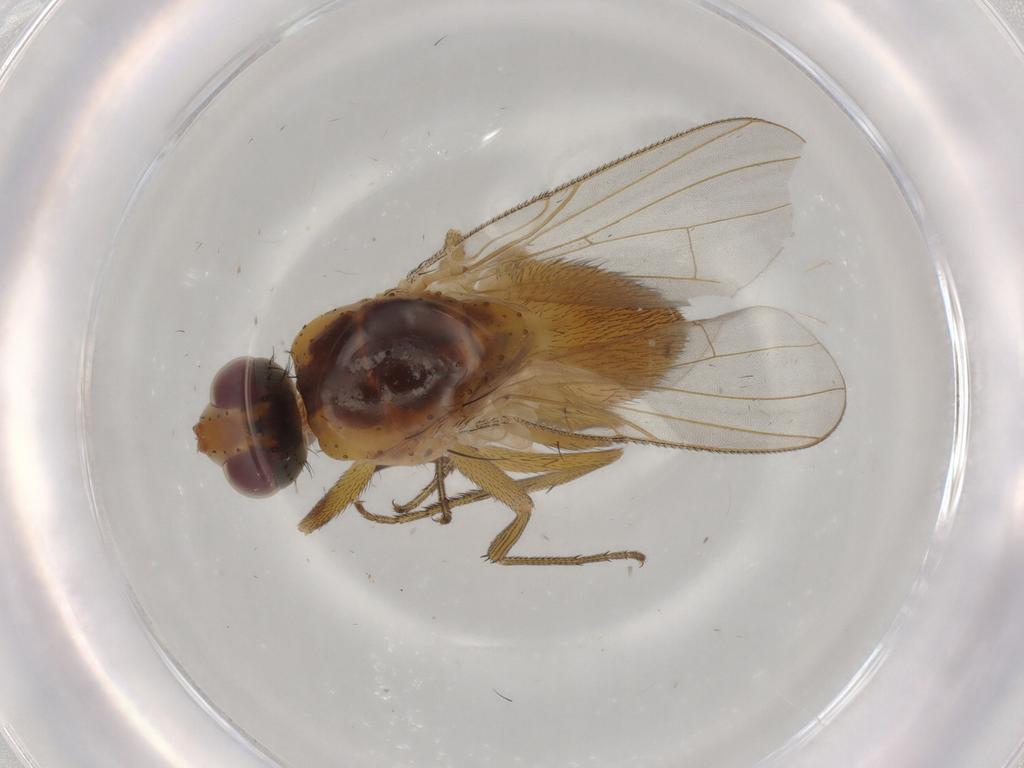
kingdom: Animalia
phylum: Arthropoda
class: Insecta
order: Diptera
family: Muscidae
